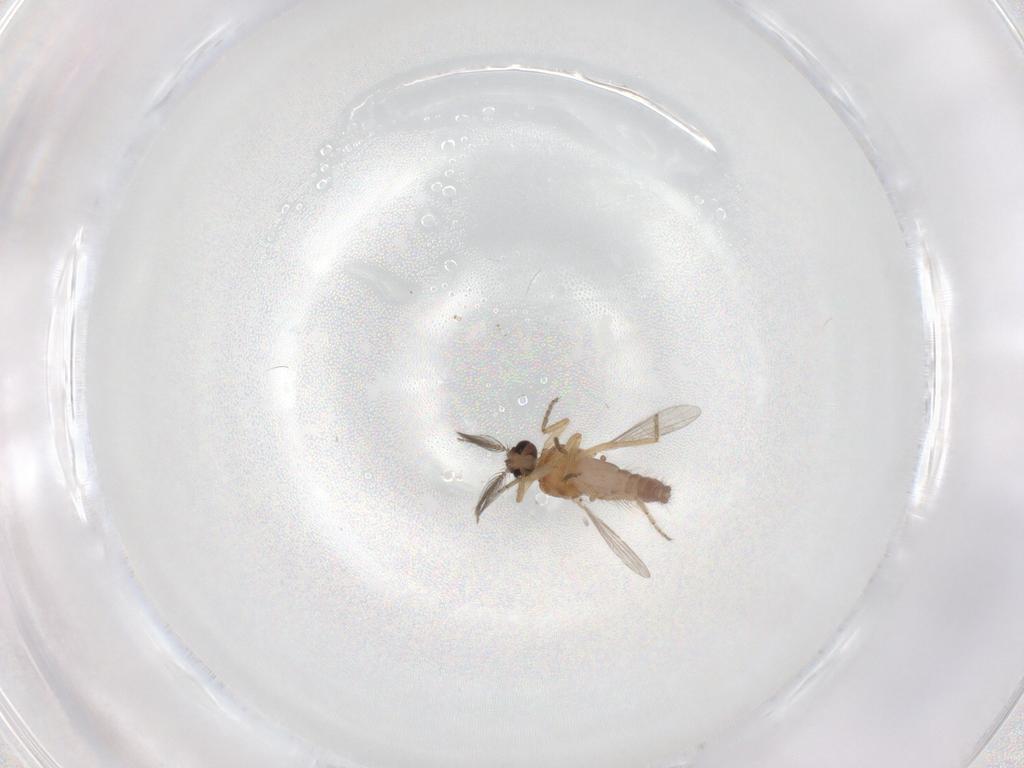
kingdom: Animalia
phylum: Arthropoda
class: Insecta
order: Diptera
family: Ceratopogonidae
